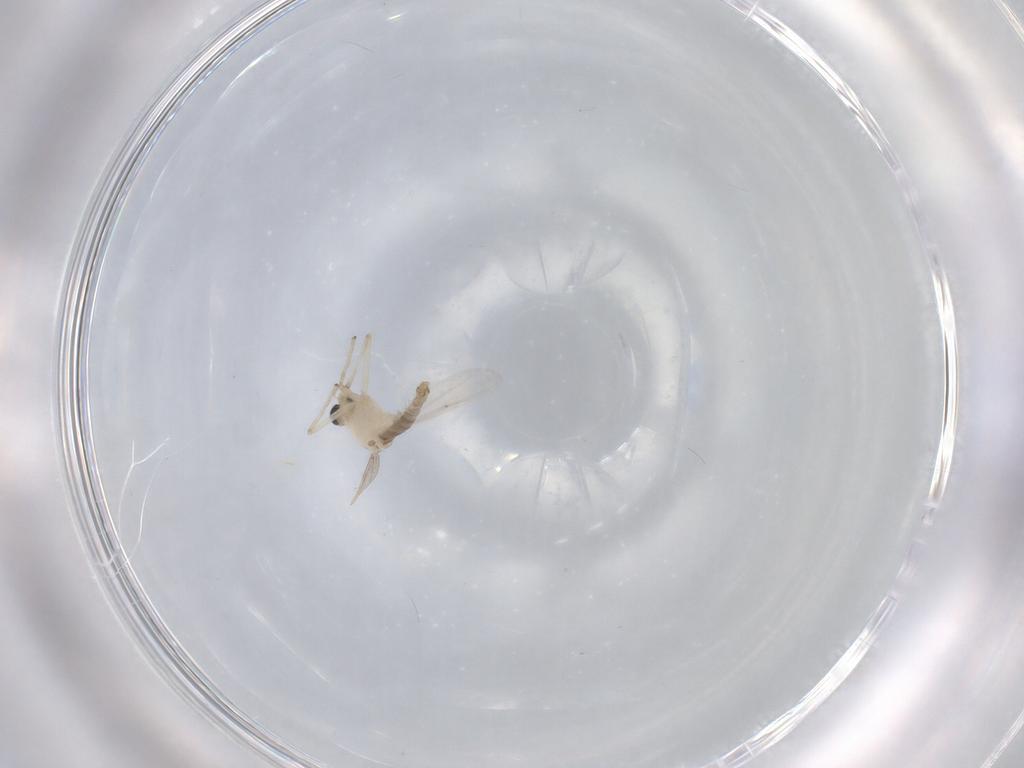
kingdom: Animalia
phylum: Arthropoda
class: Insecta
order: Diptera
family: Chironomidae
